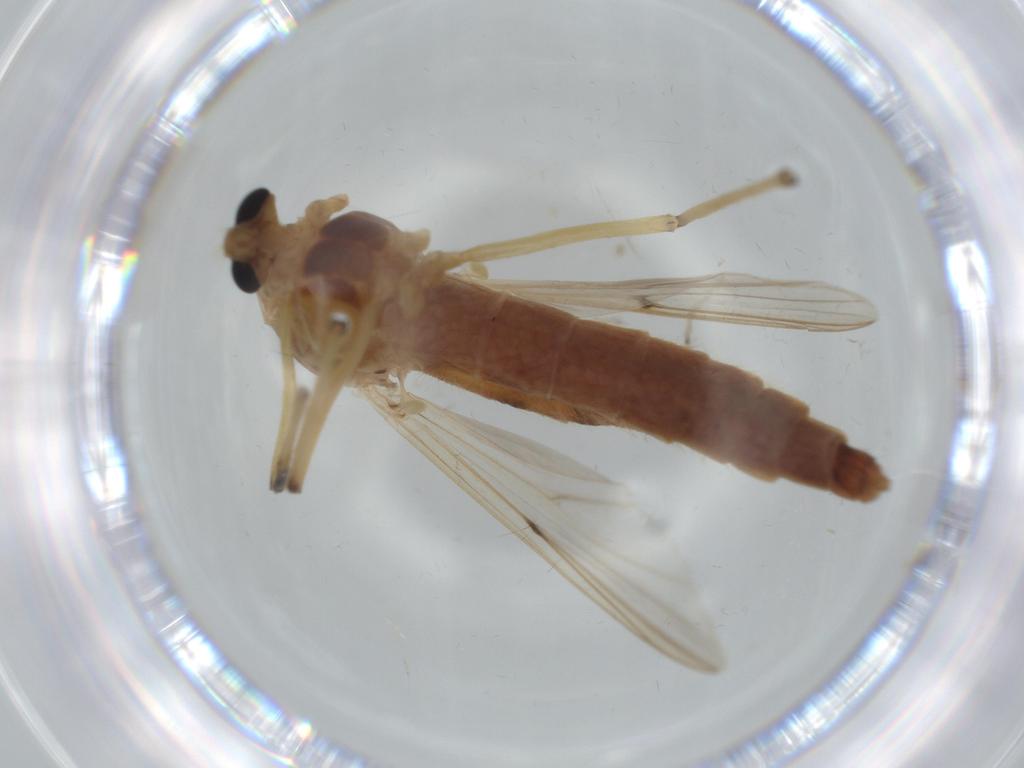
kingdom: Animalia
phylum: Arthropoda
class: Insecta
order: Diptera
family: Chironomidae
